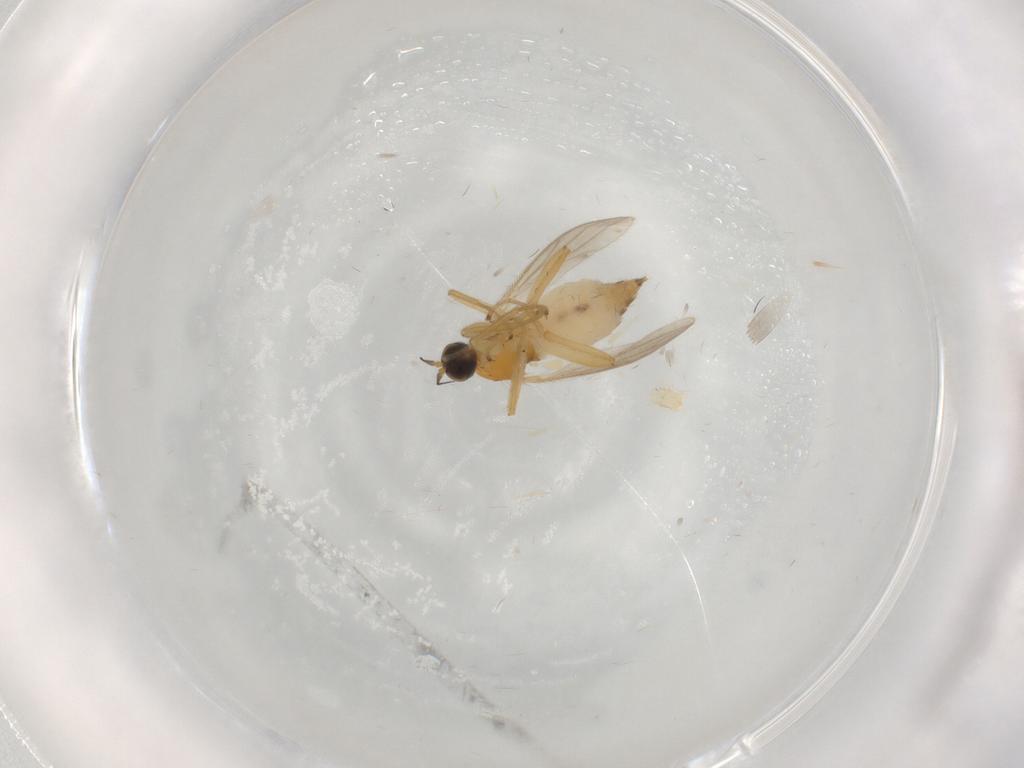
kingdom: Animalia
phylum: Arthropoda
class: Insecta
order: Diptera
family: Hybotidae
